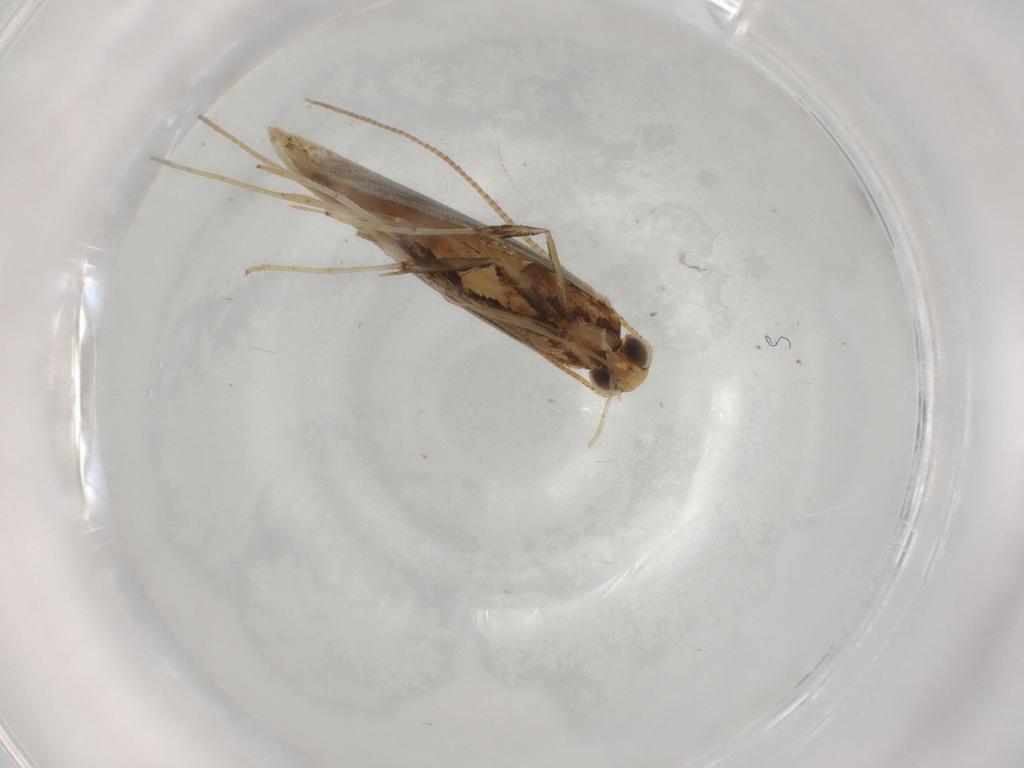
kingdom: Animalia
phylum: Arthropoda
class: Insecta
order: Lepidoptera
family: Gracillariidae
